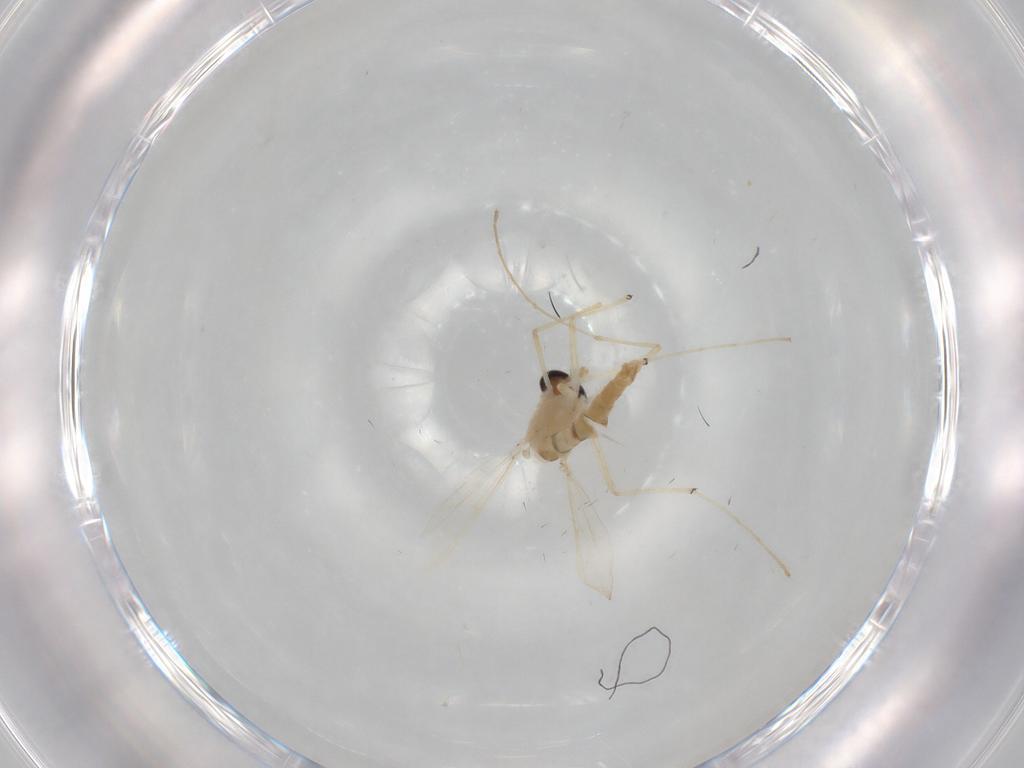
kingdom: Animalia
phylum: Arthropoda
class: Insecta
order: Diptera
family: Chironomidae
